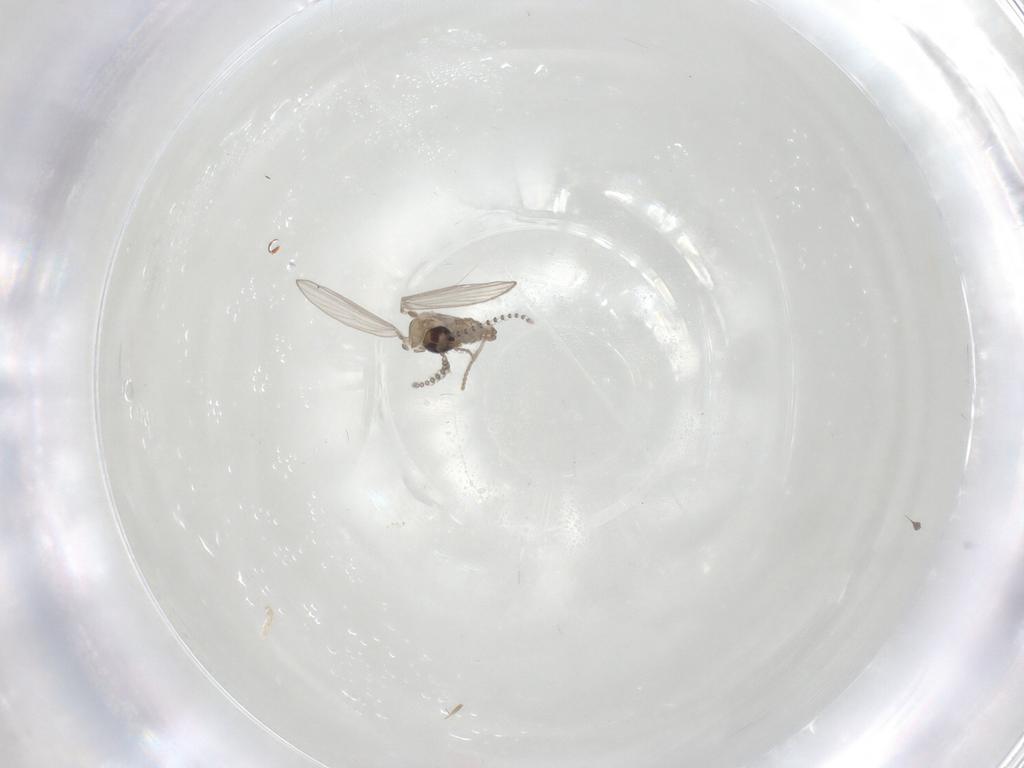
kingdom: Animalia
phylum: Arthropoda
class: Insecta
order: Diptera
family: Psychodidae
